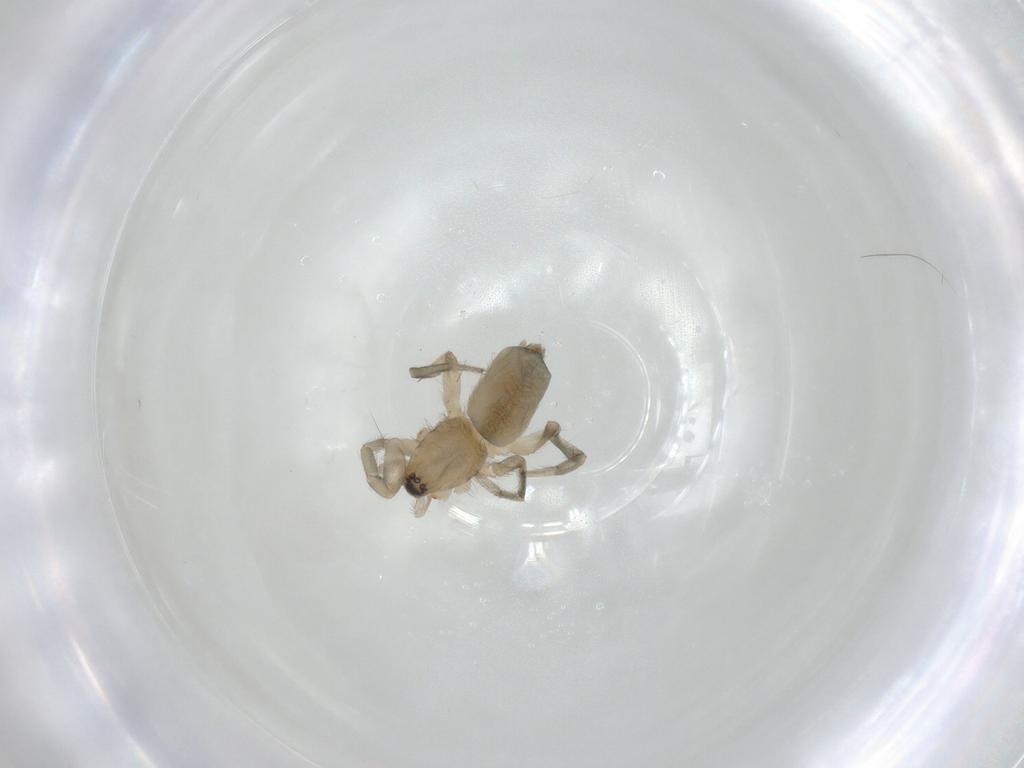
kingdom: Animalia
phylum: Arthropoda
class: Arachnida
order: Araneae
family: Gnaphosidae
